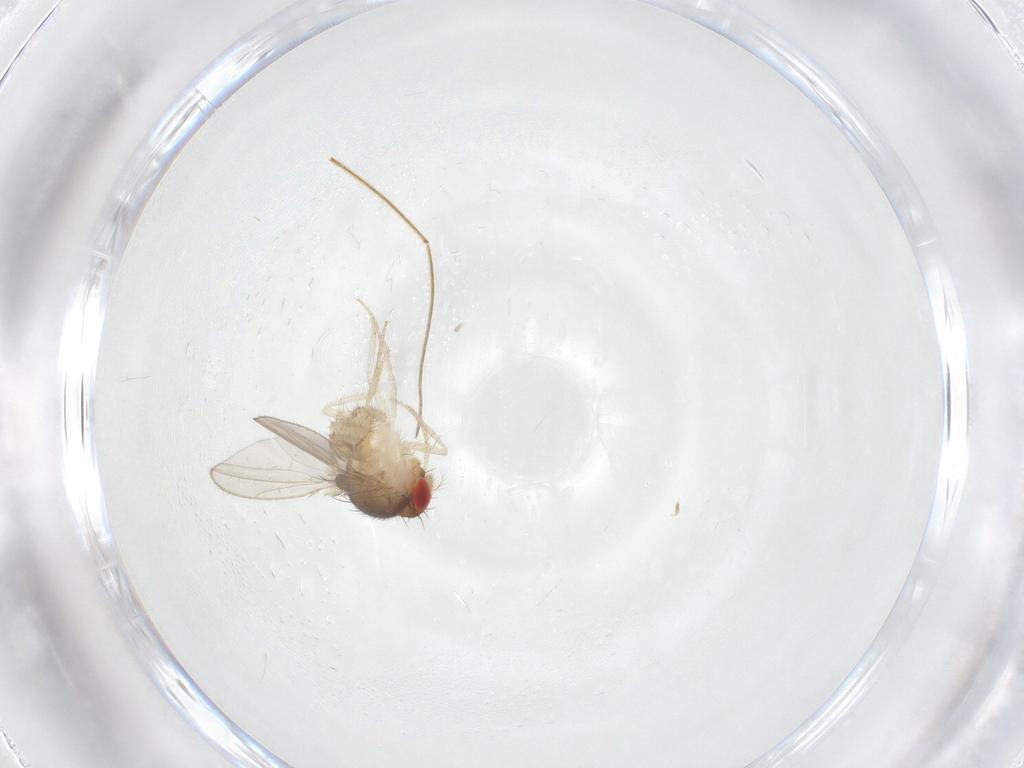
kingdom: Animalia
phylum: Arthropoda
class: Insecta
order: Diptera
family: Drosophilidae
